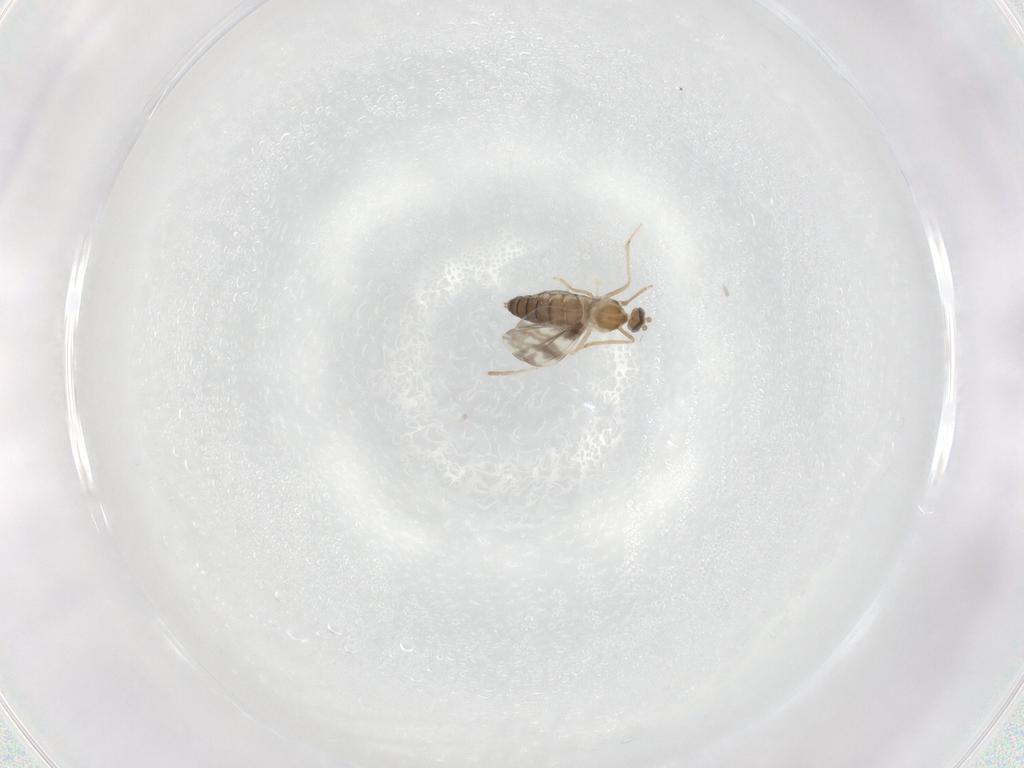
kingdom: Animalia
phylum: Arthropoda
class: Insecta
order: Diptera
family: Cecidomyiidae
